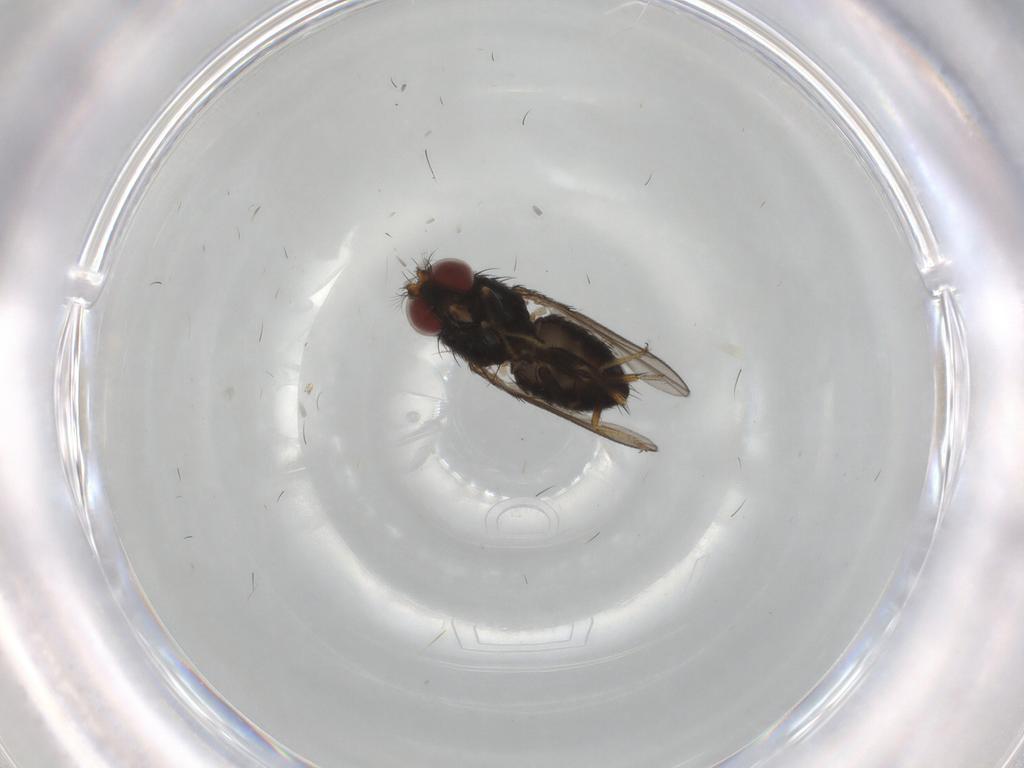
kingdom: Animalia
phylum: Arthropoda
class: Insecta
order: Diptera
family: Ephydridae
